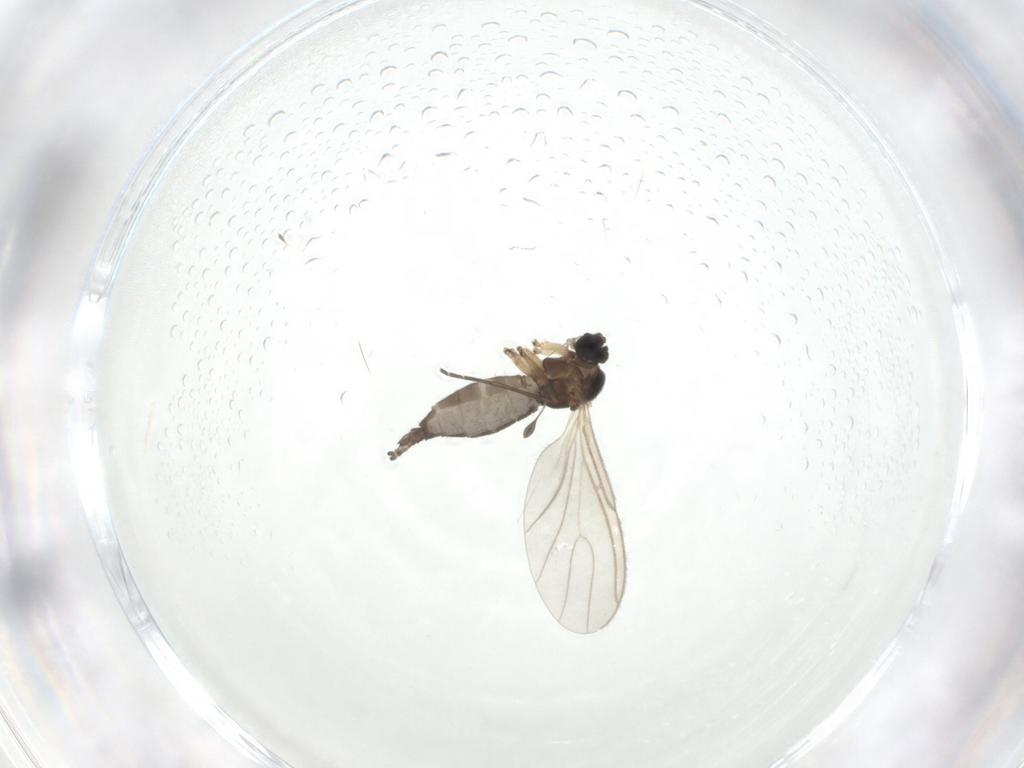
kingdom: Animalia
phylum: Arthropoda
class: Insecta
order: Diptera
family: Sciaridae
